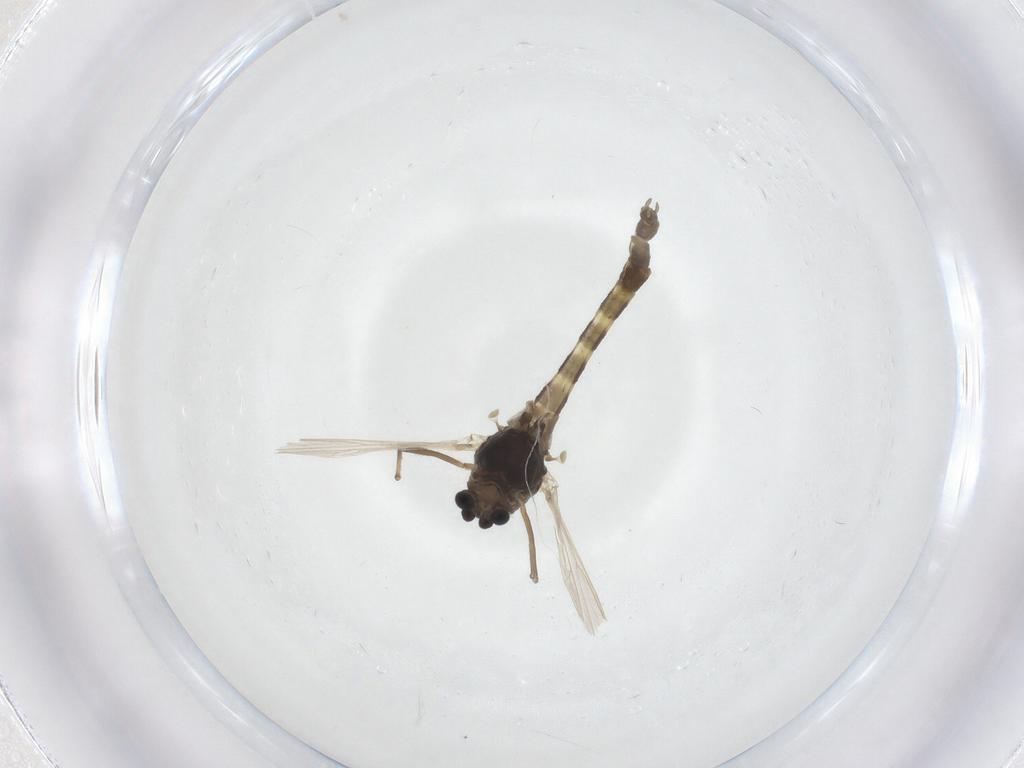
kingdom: Animalia
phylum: Arthropoda
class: Insecta
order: Diptera
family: Chironomidae
